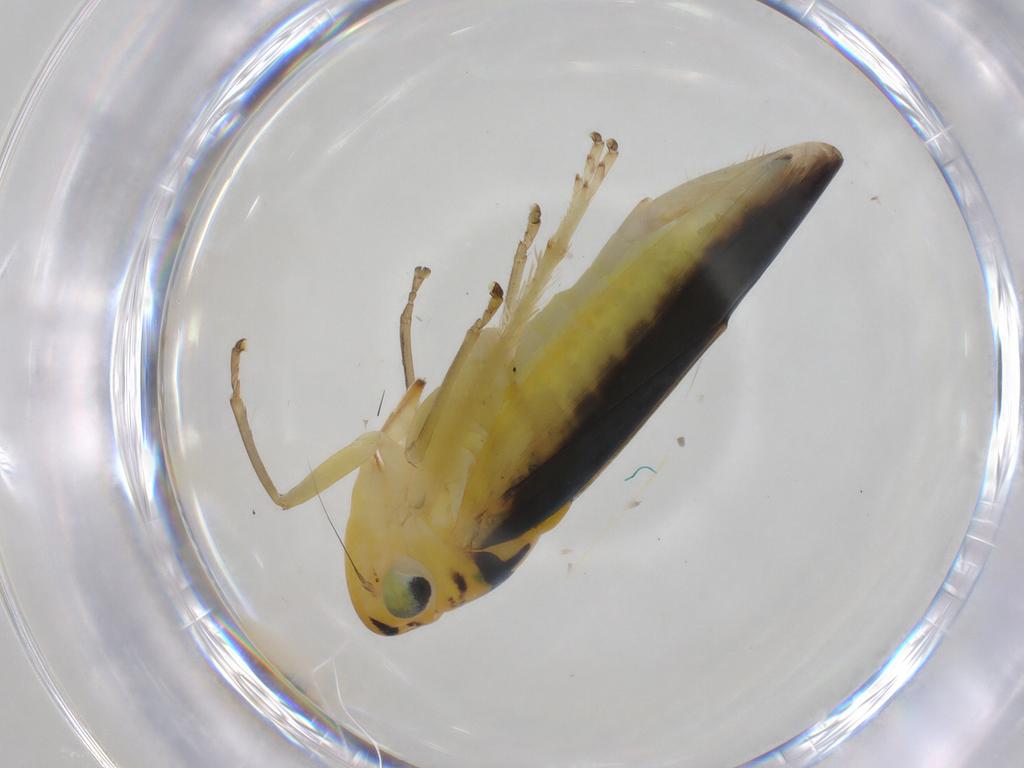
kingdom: Animalia
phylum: Arthropoda
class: Insecta
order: Hemiptera
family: Cicadellidae
